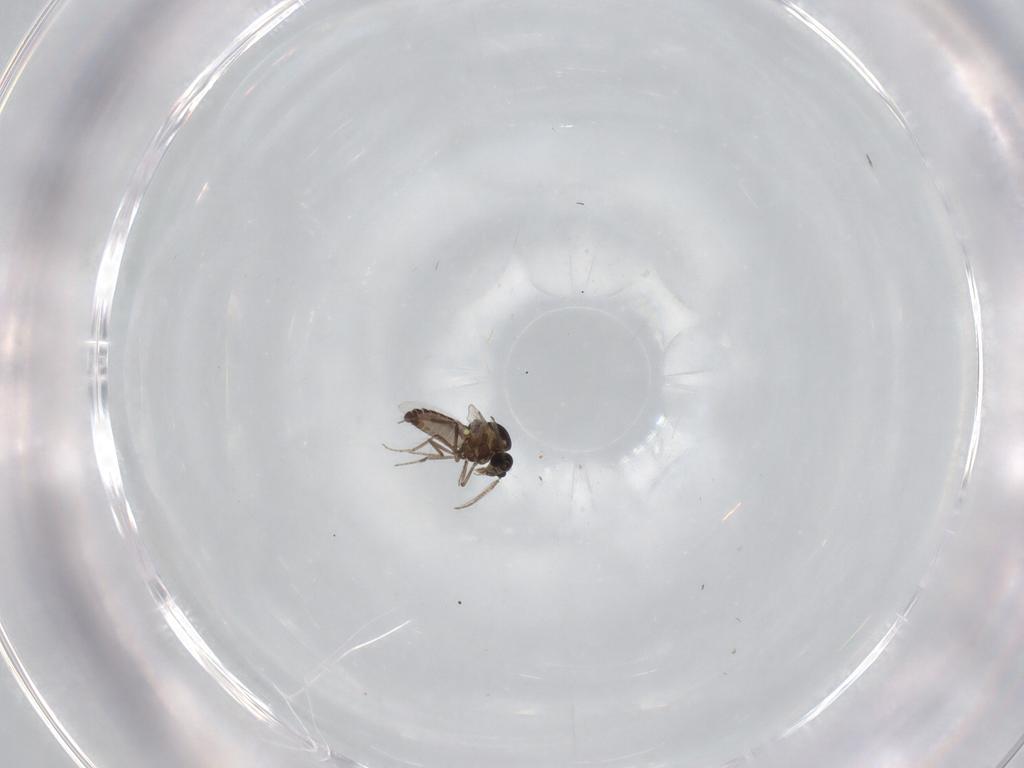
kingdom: Animalia
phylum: Arthropoda
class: Insecta
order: Diptera
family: Ceratopogonidae
